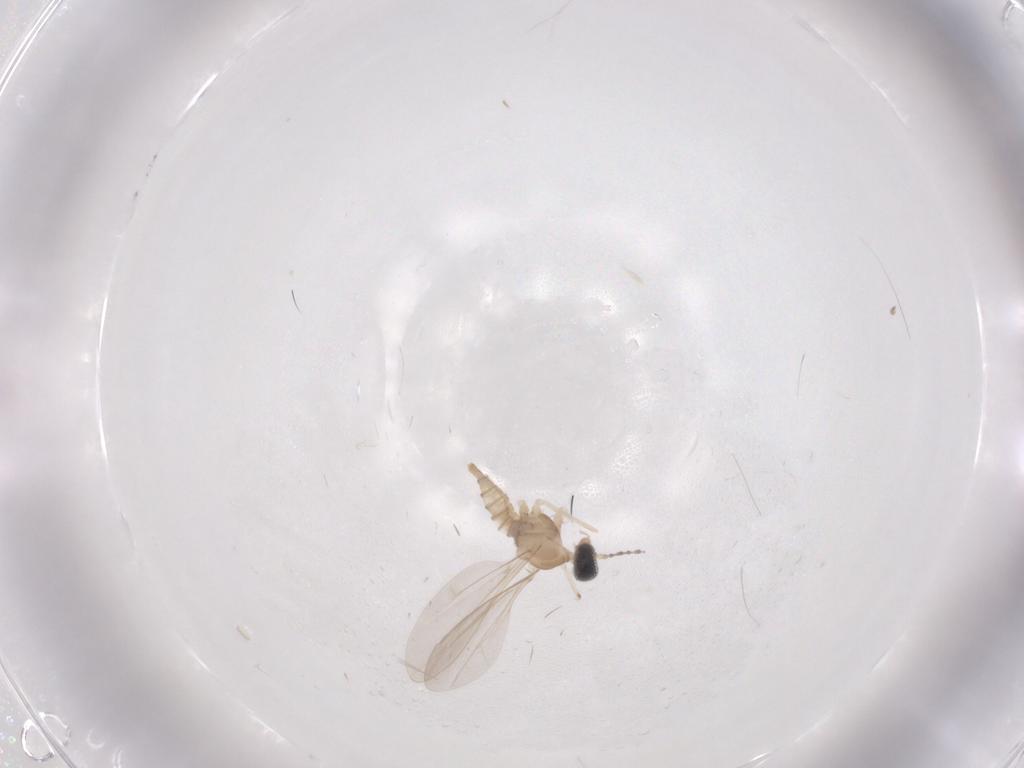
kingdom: Animalia
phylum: Arthropoda
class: Insecta
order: Diptera
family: Cecidomyiidae
